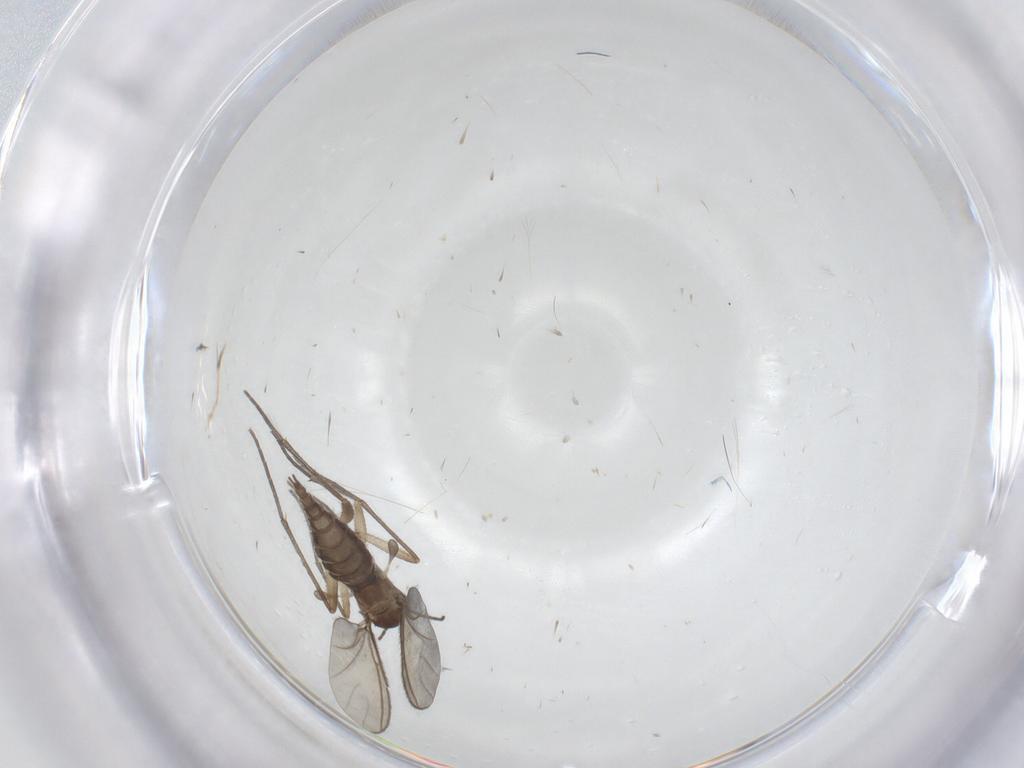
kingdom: Animalia
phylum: Arthropoda
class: Insecta
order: Diptera
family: Sciaridae
